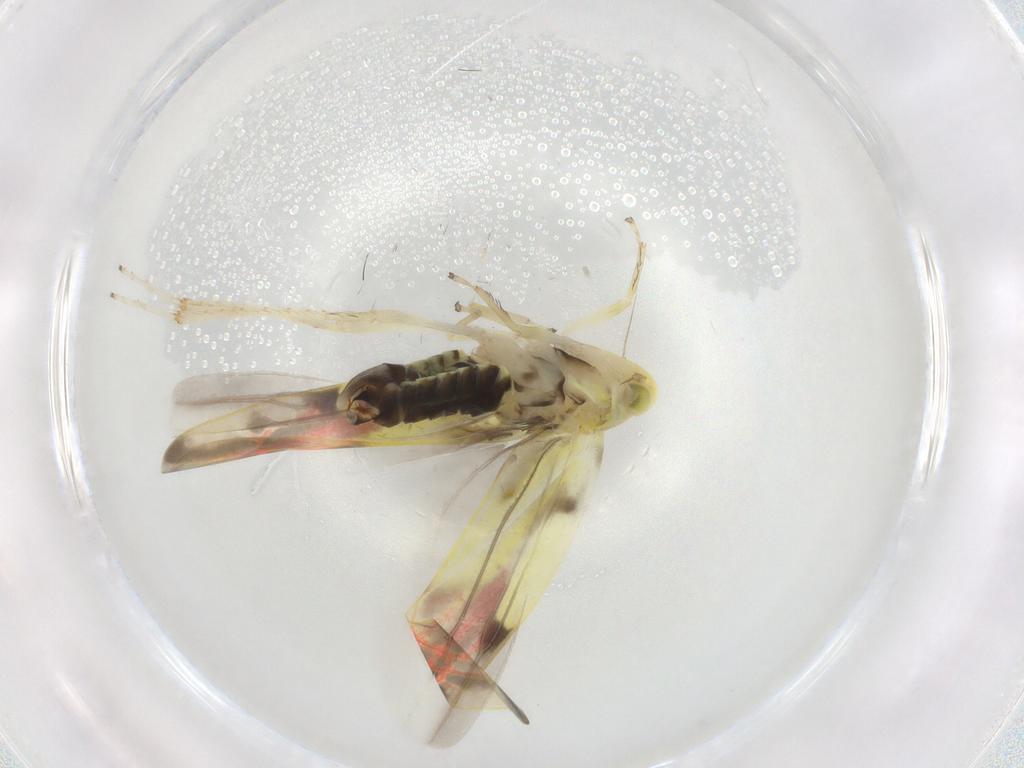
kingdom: Animalia
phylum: Arthropoda
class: Insecta
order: Hemiptera
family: Cicadellidae
